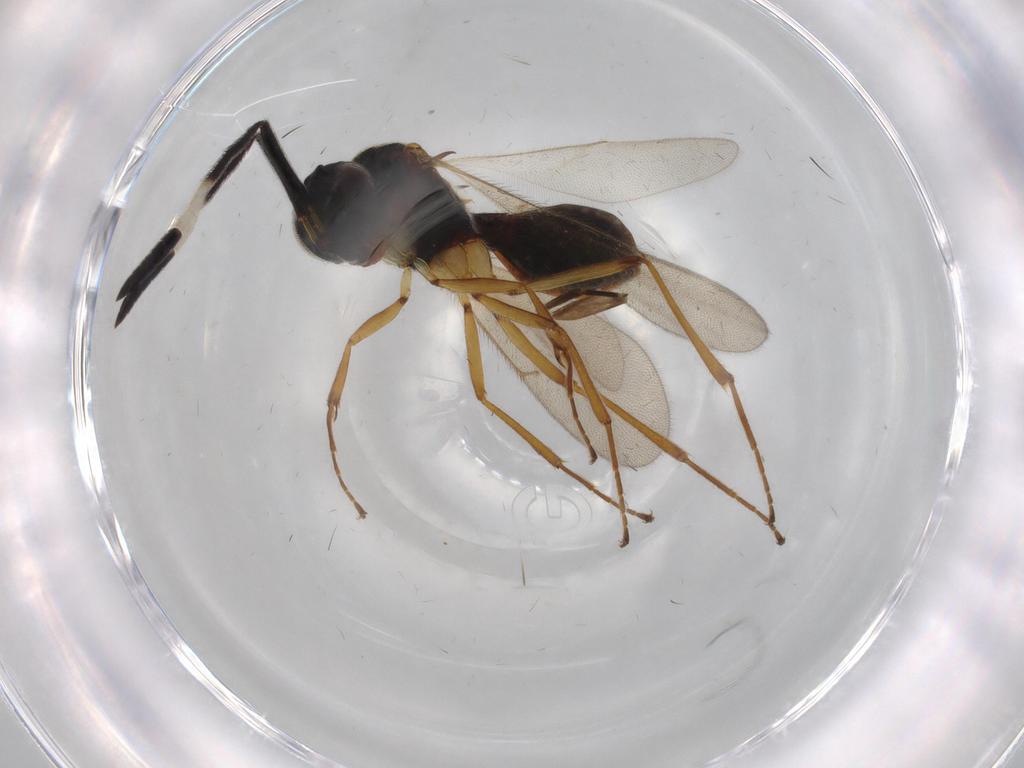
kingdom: Animalia
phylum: Arthropoda
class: Insecta
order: Hymenoptera
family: Scelionidae
